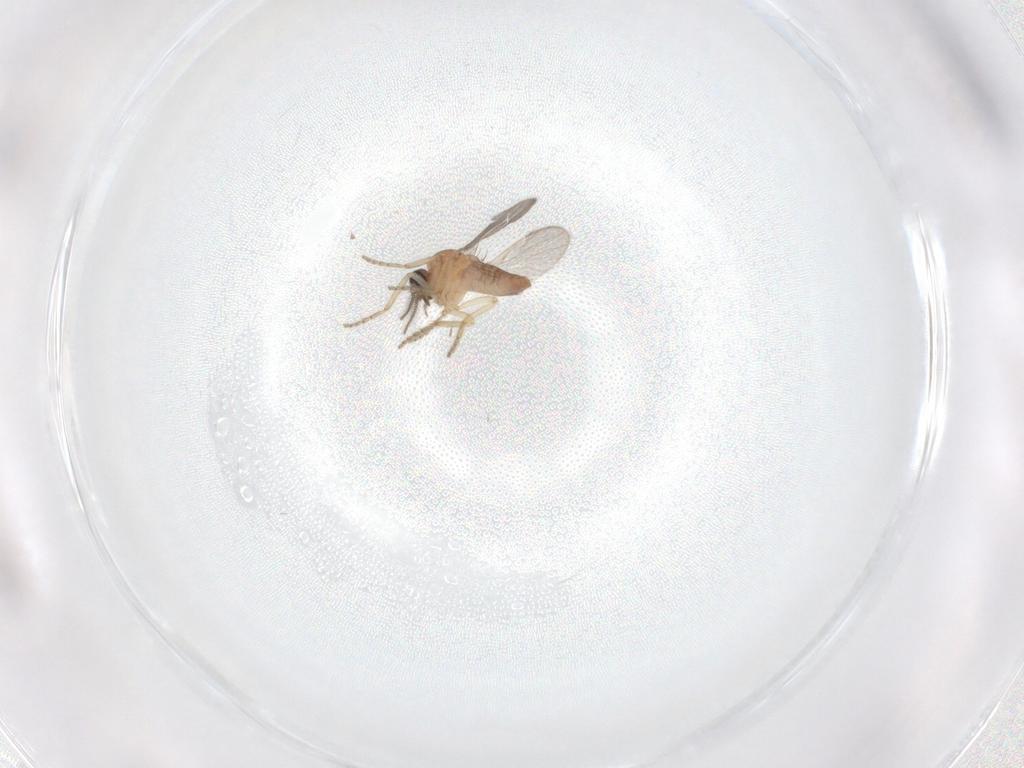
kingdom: Animalia
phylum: Arthropoda
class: Insecta
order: Diptera
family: Ceratopogonidae
